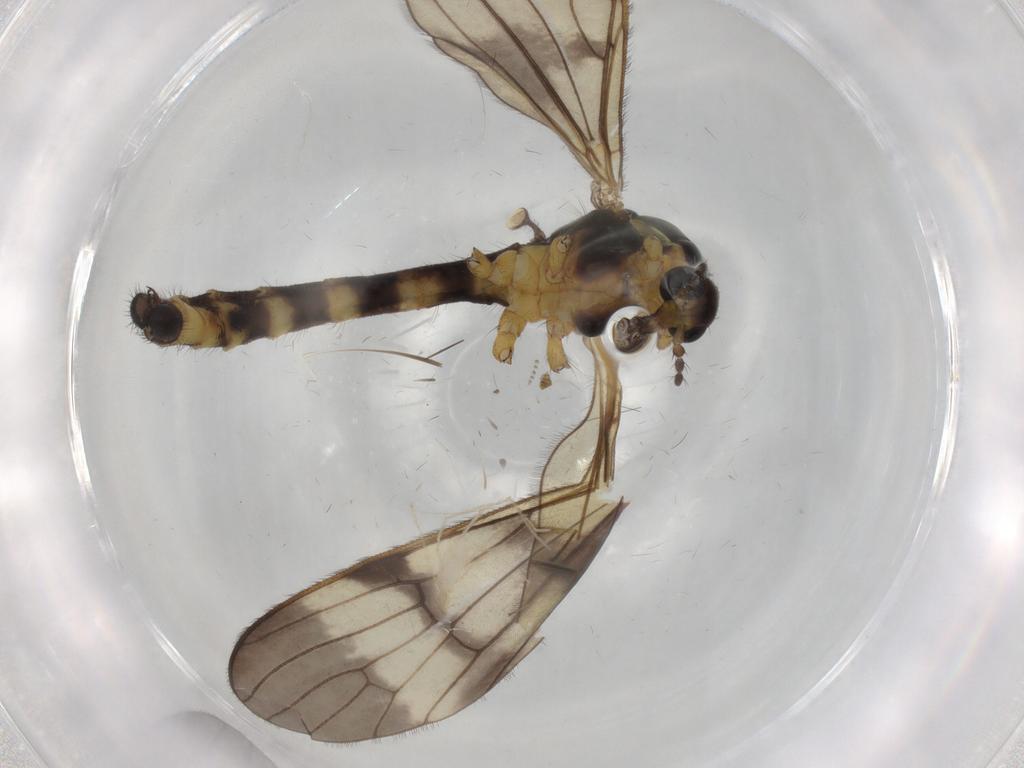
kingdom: Animalia
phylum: Arthropoda
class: Insecta
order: Diptera
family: Limoniidae
